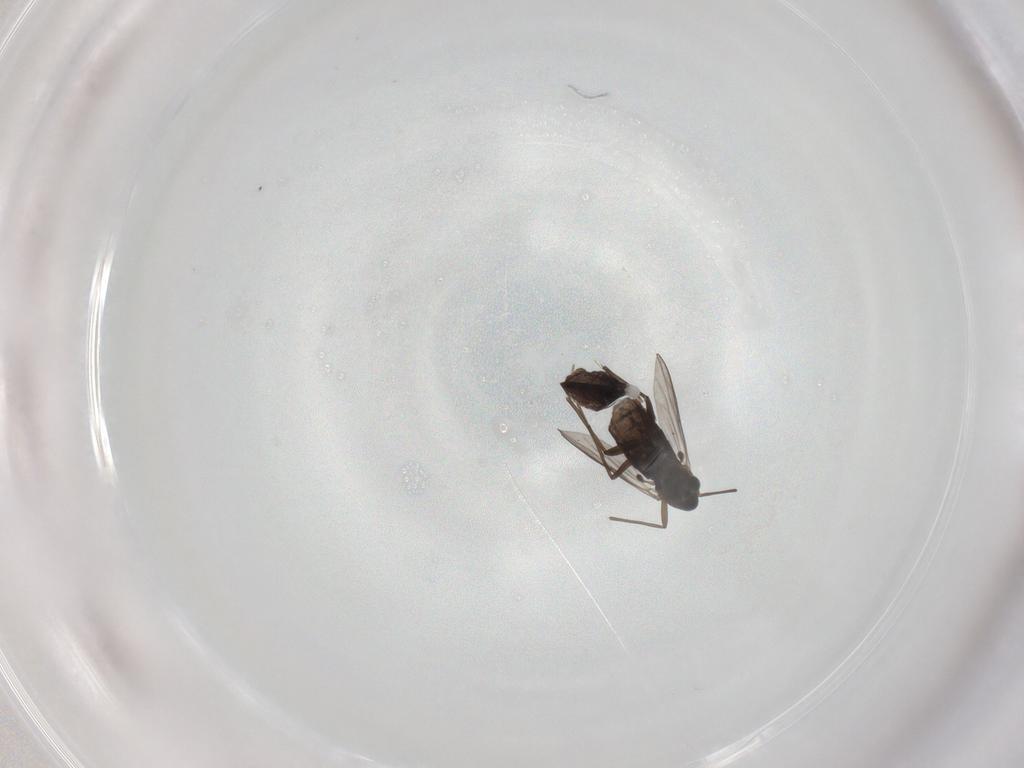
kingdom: Animalia
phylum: Arthropoda
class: Insecta
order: Diptera
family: Chironomidae
